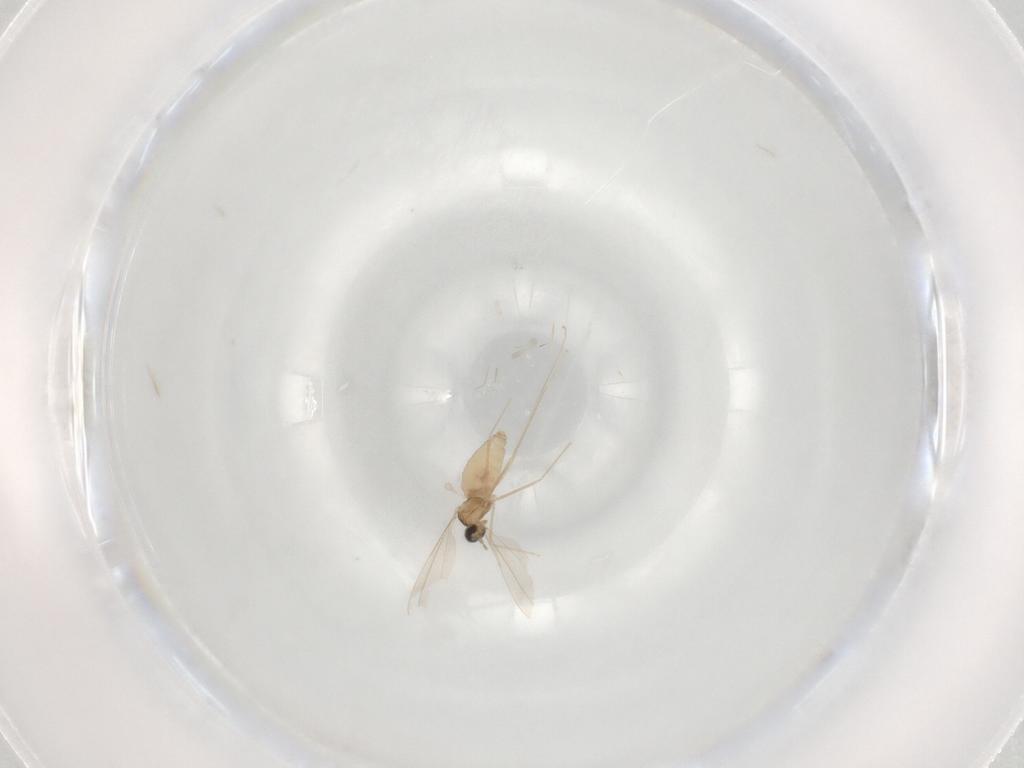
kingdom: Animalia
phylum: Arthropoda
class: Insecta
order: Diptera
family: Cecidomyiidae
